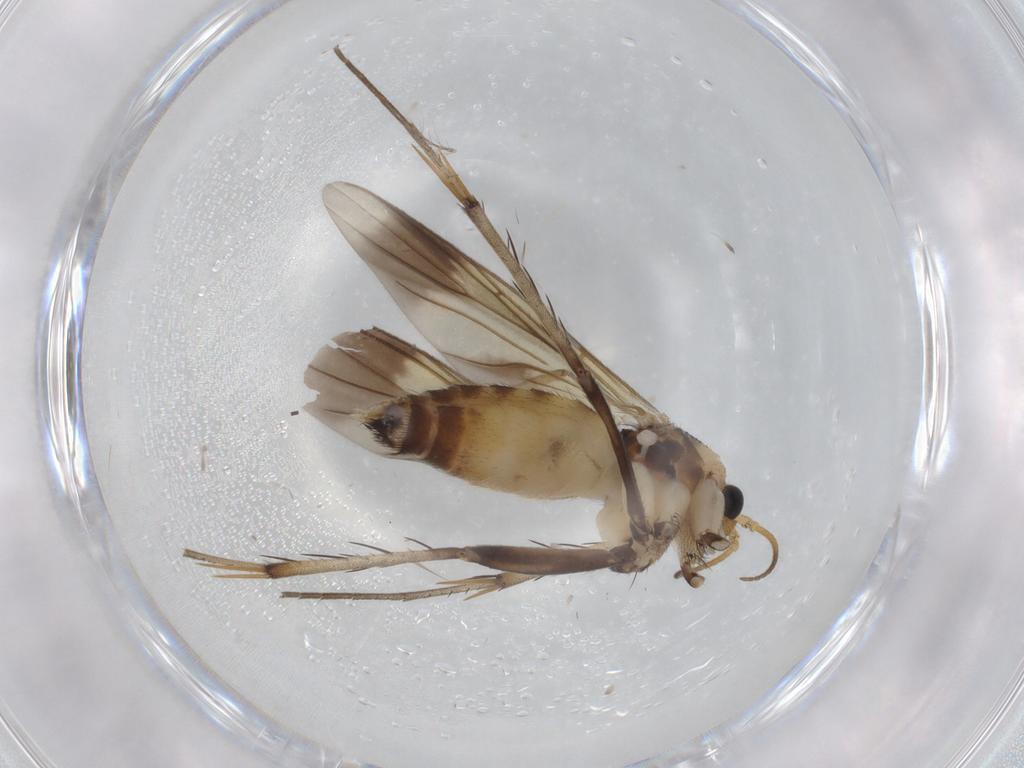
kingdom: Animalia
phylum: Arthropoda
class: Insecta
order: Diptera
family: Mycetophilidae
